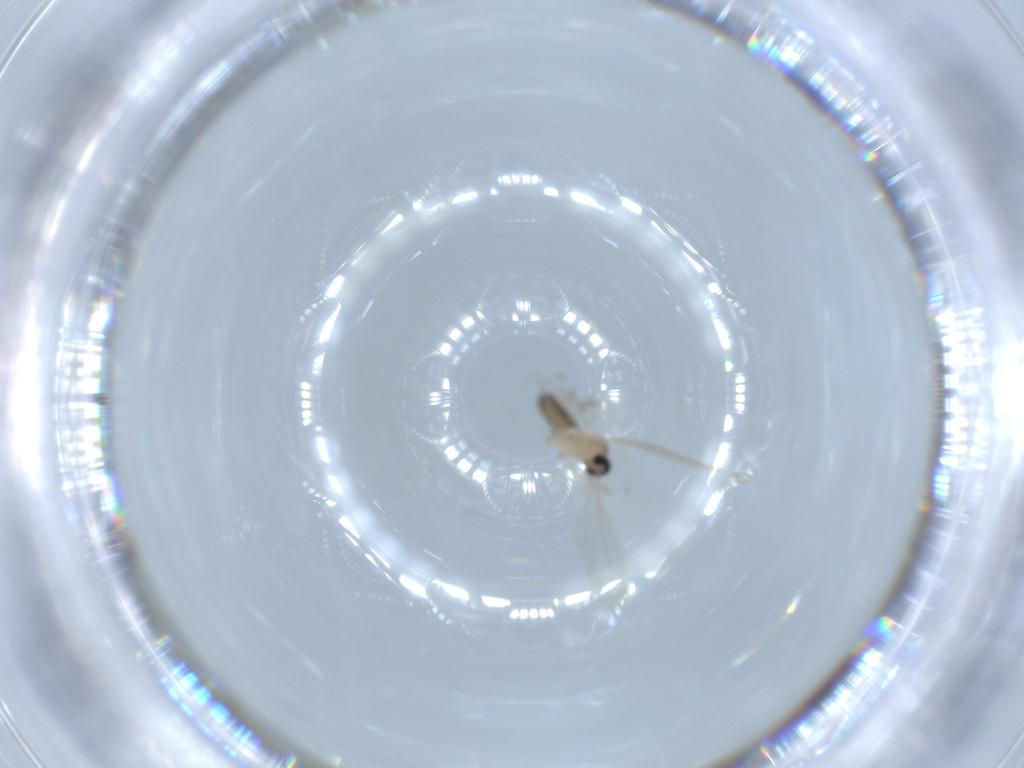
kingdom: Animalia
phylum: Arthropoda
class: Insecta
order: Diptera
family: Cecidomyiidae
